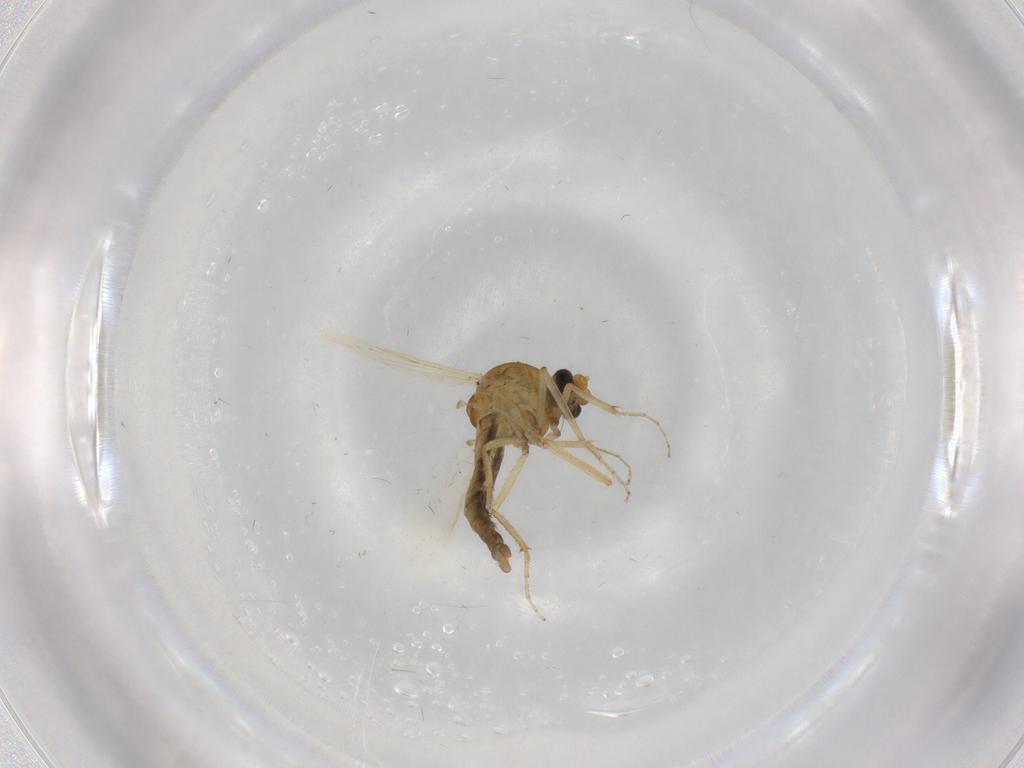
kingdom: Animalia
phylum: Arthropoda
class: Insecta
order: Diptera
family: Ceratopogonidae
